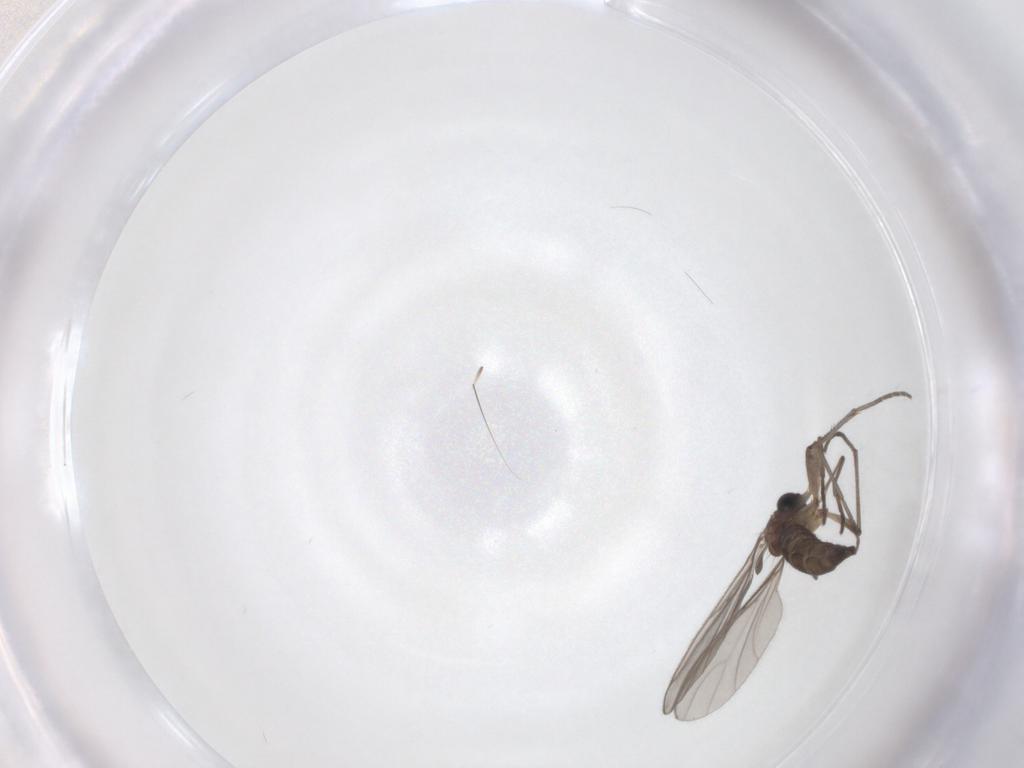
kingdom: Animalia
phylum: Arthropoda
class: Insecta
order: Diptera
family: Sciaridae
